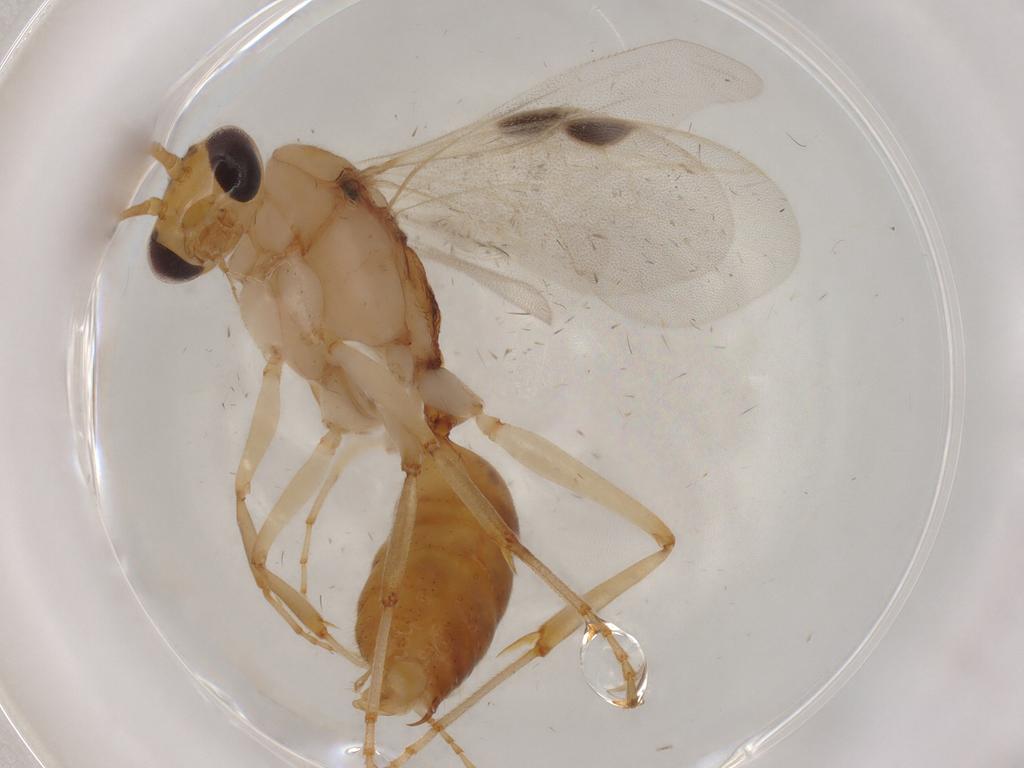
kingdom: Animalia
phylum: Arthropoda
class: Insecta
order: Hymenoptera
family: Formicidae
